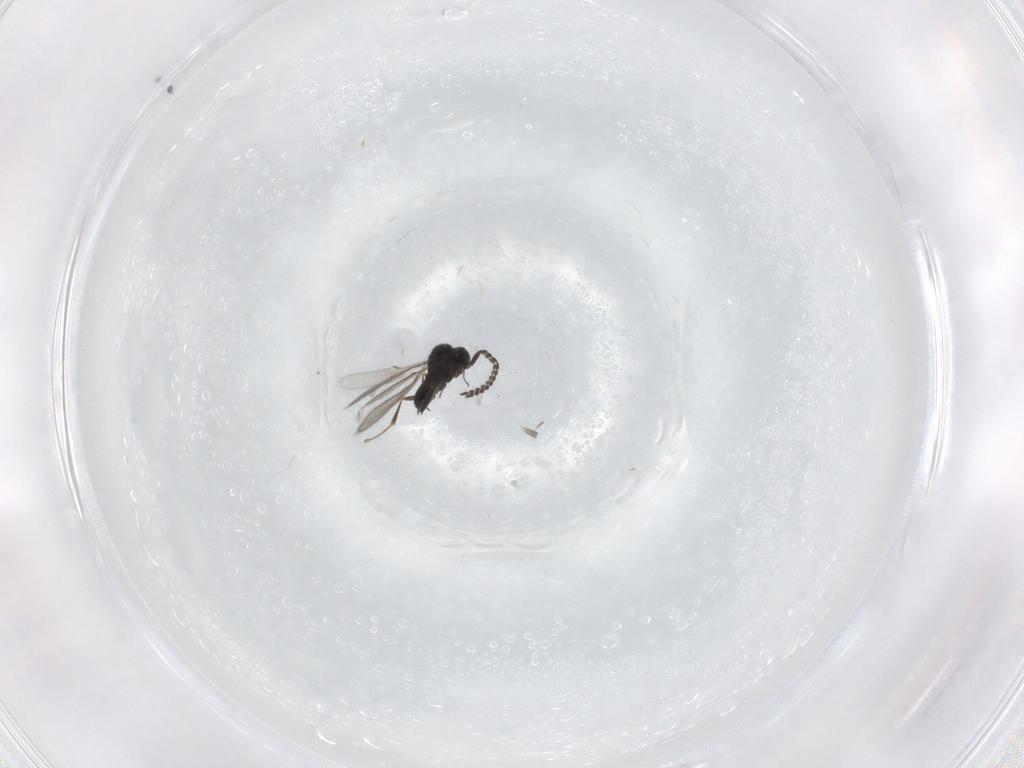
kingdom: Animalia
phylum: Arthropoda
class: Insecta
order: Hymenoptera
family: Scelionidae
